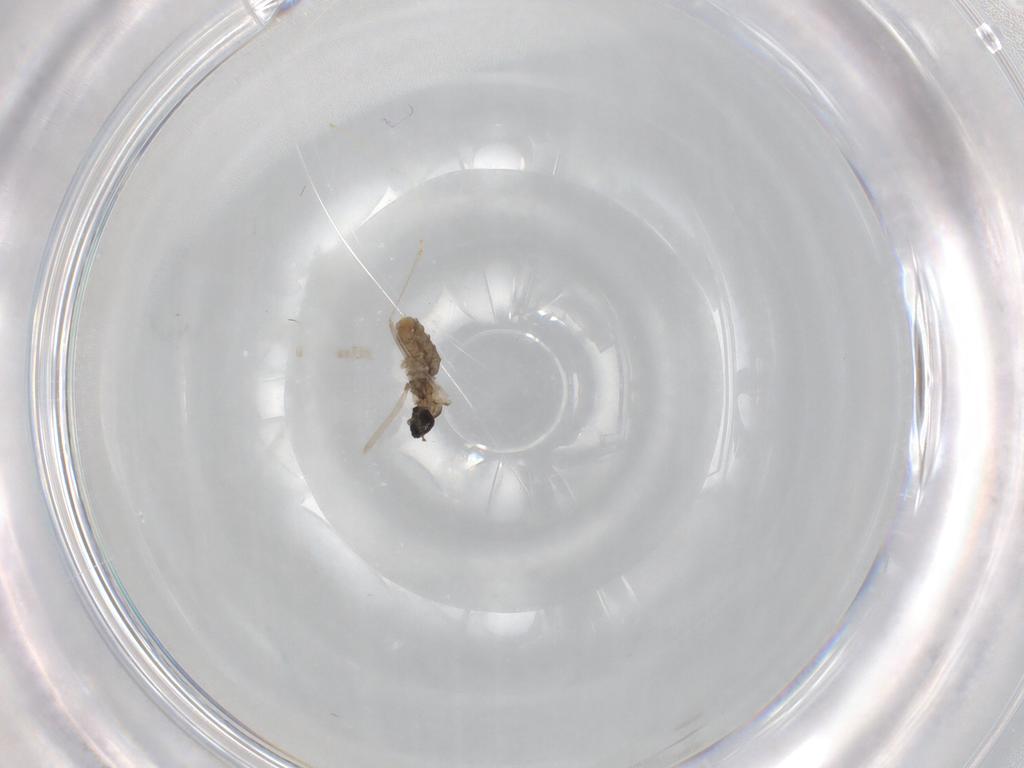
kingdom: Animalia
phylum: Arthropoda
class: Insecta
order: Diptera
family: Cecidomyiidae
